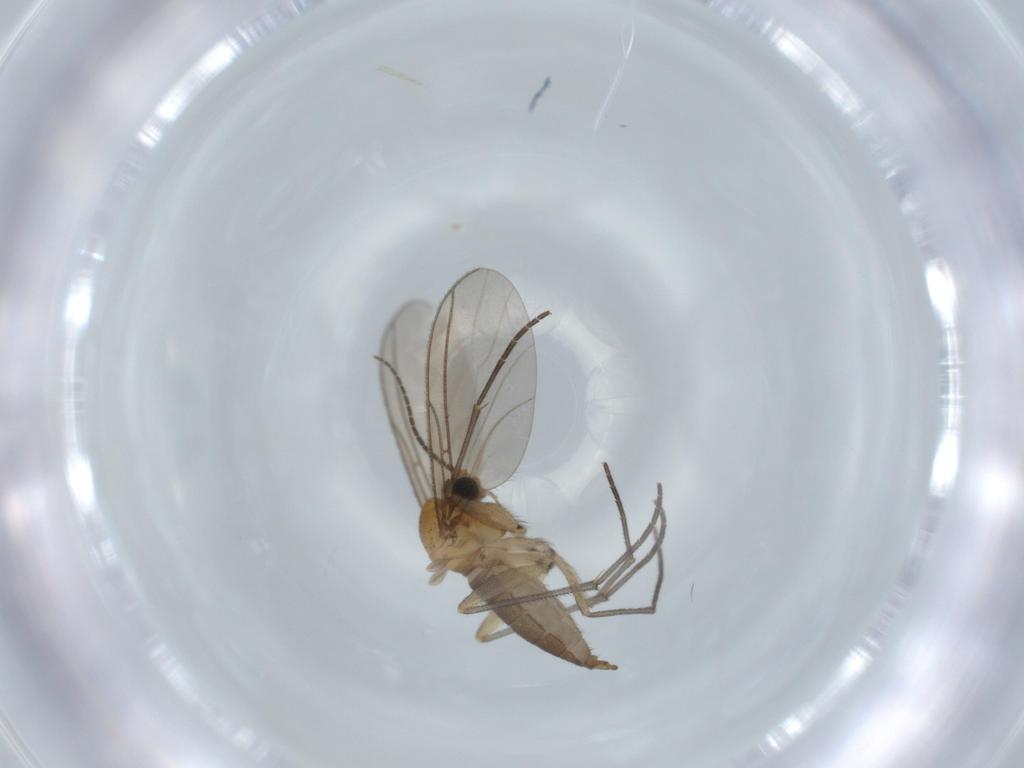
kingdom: Animalia
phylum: Arthropoda
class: Insecta
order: Diptera
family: Sciaridae
